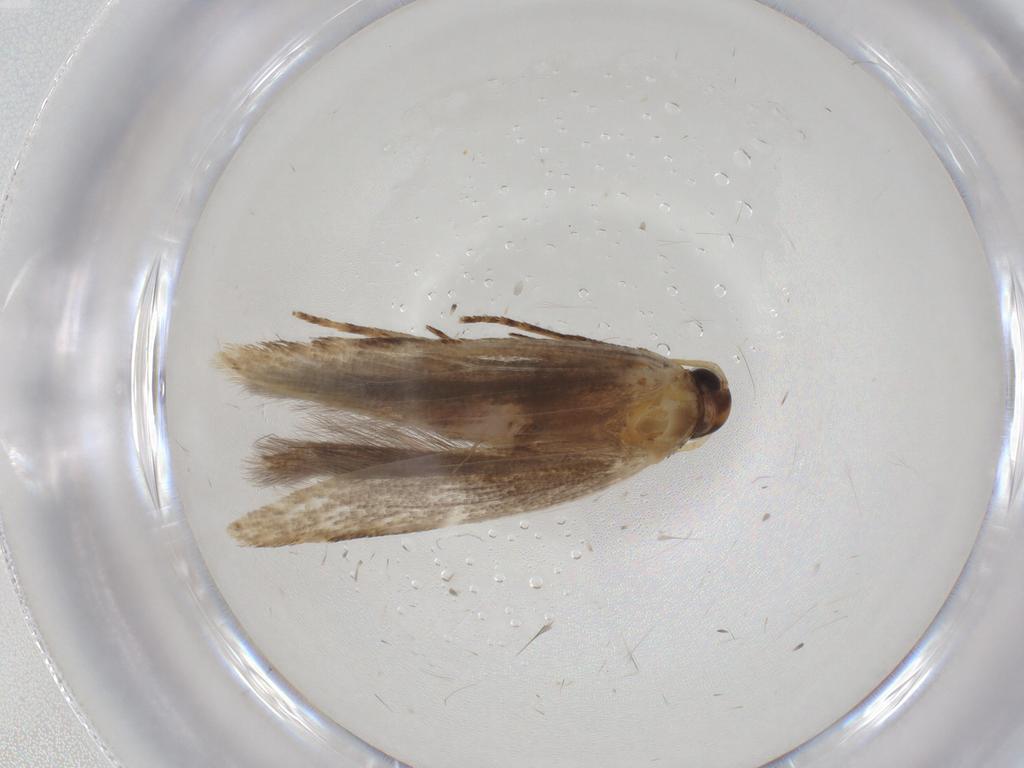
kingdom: Animalia
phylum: Arthropoda
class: Insecta
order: Lepidoptera
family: Gelechiidae
